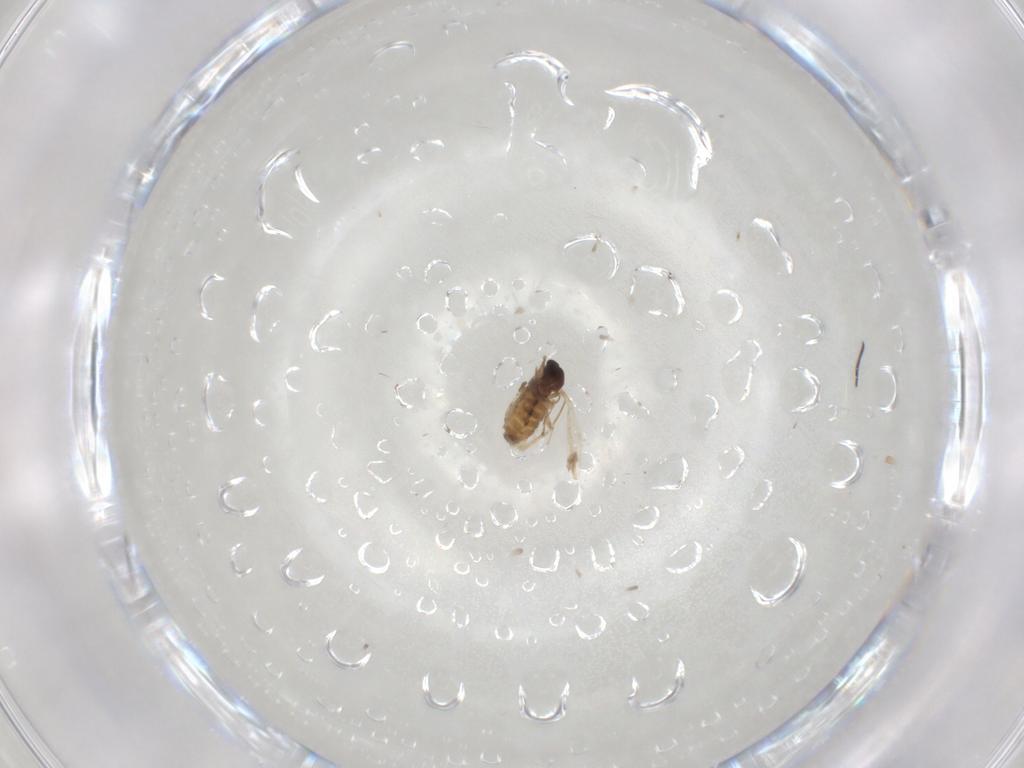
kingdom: Animalia
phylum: Arthropoda
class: Insecta
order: Diptera
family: Cecidomyiidae
